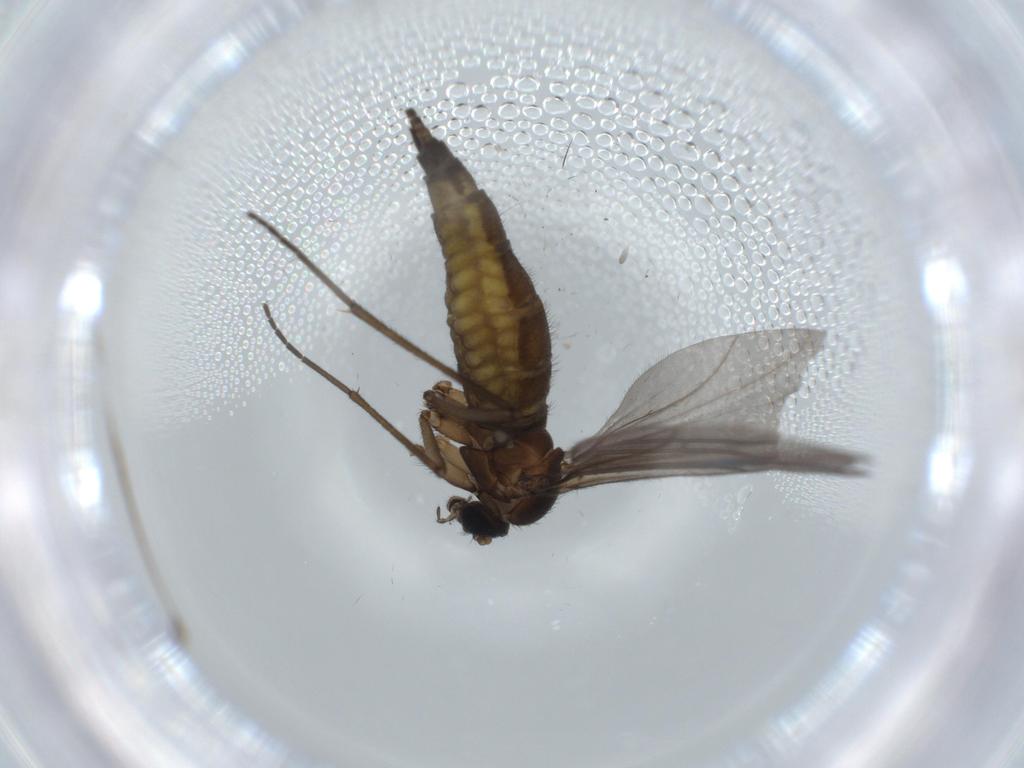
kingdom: Animalia
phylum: Arthropoda
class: Insecta
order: Diptera
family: Sciaridae
